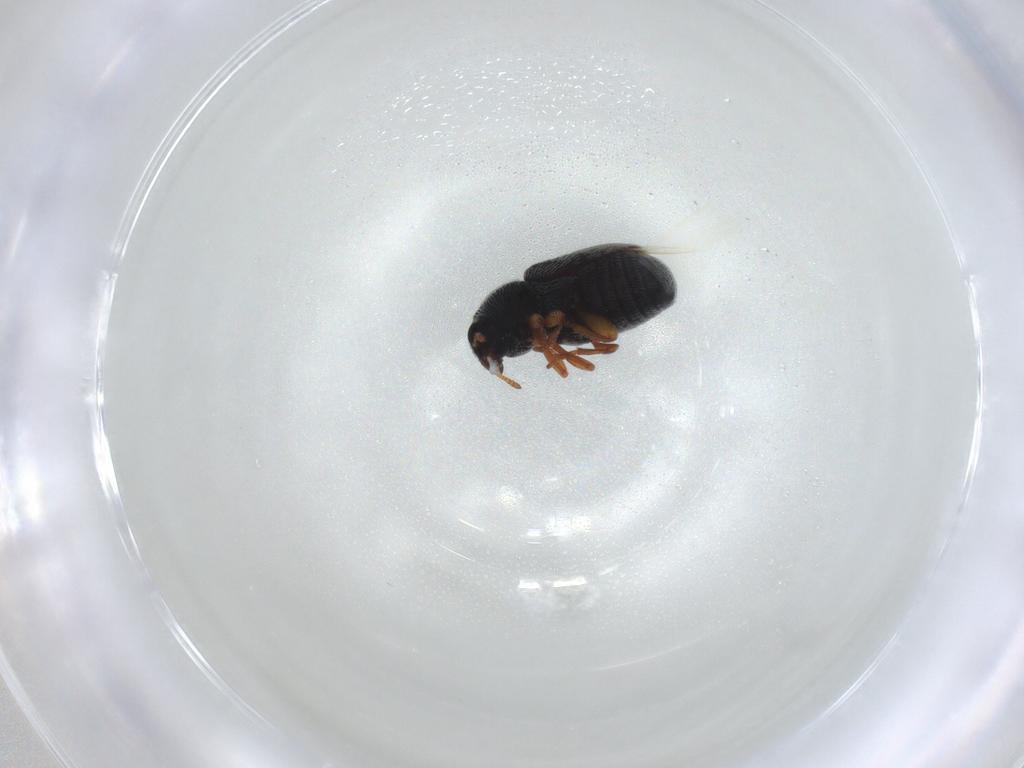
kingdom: Animalia
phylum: Arthropoda
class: Insecta
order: Coleoptera
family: Anthribidae
